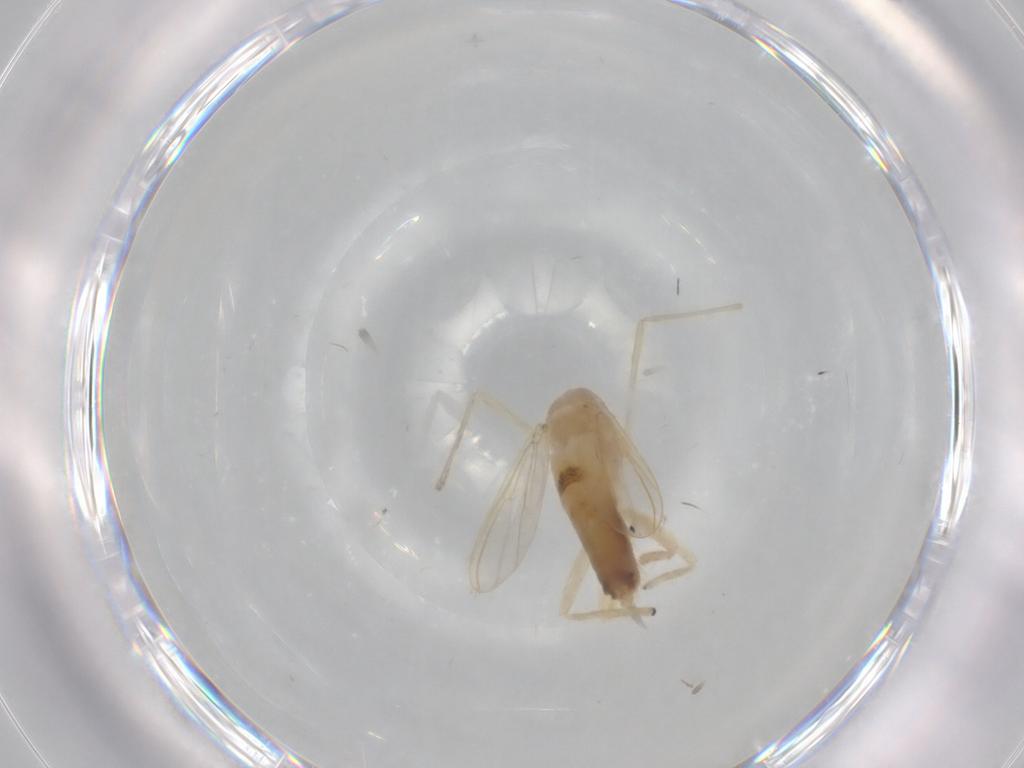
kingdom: Animalia
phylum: Arthropoda
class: Insecta
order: Diptera
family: Chironomidae
